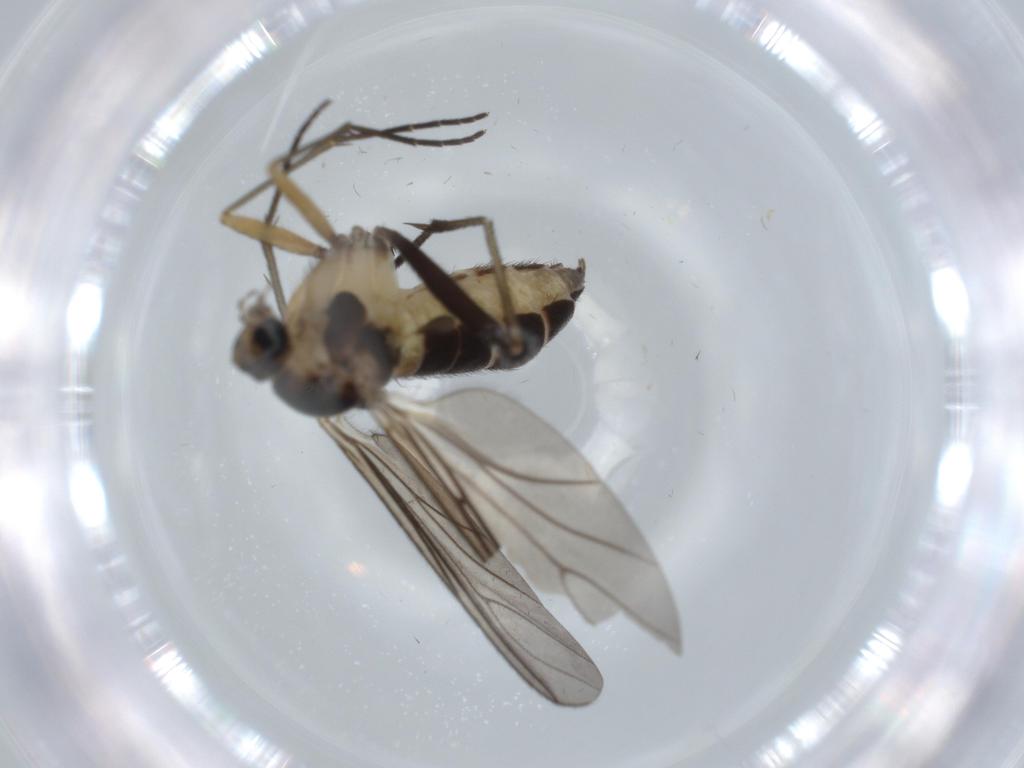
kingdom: Animalia
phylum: Arthropoda
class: Insecta
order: Diptera
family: Sciaridae
